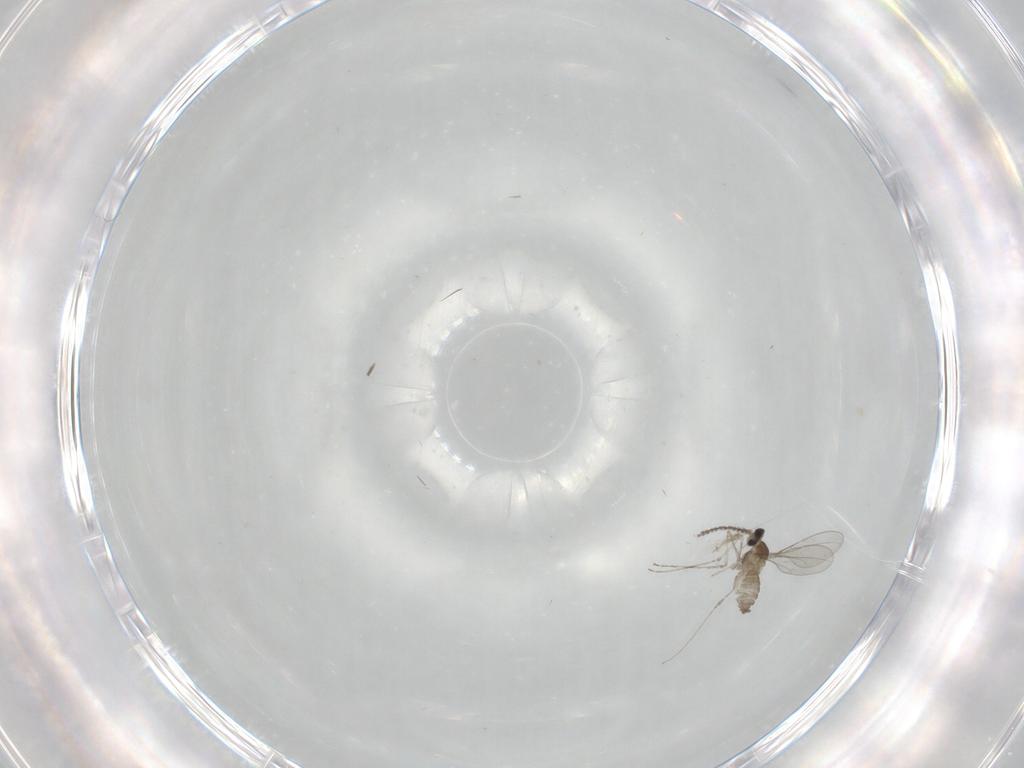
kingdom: Animalia
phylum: Arthropoda
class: Insecta
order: Diptera
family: Cecidomyiidae
